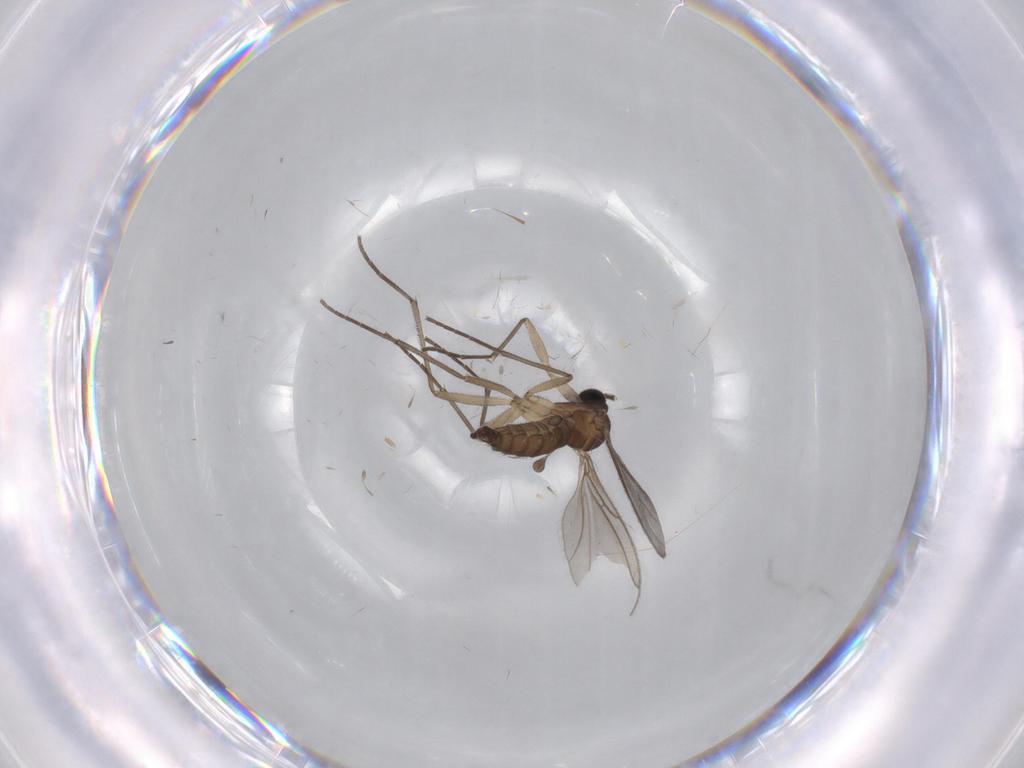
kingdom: Animalia
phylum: Arthropoda
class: Insecta
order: Diptera
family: Sciaridae
